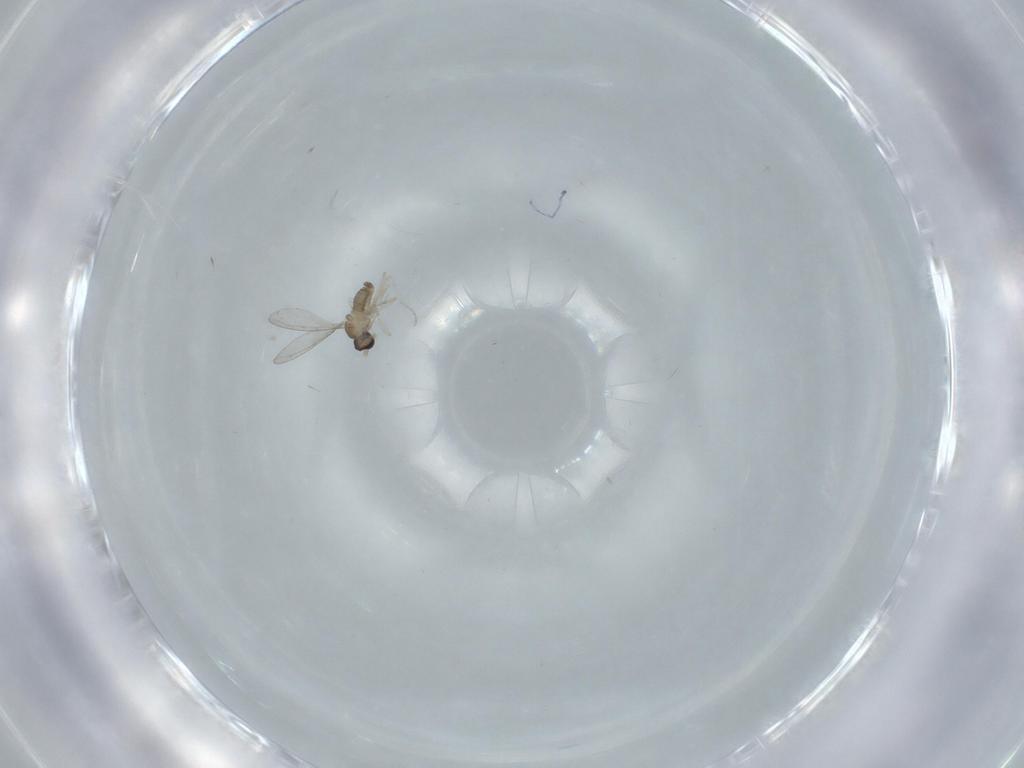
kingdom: Animalia
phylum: Arthropoda
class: Insecta
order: Diptera
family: Cecidomyiidae
